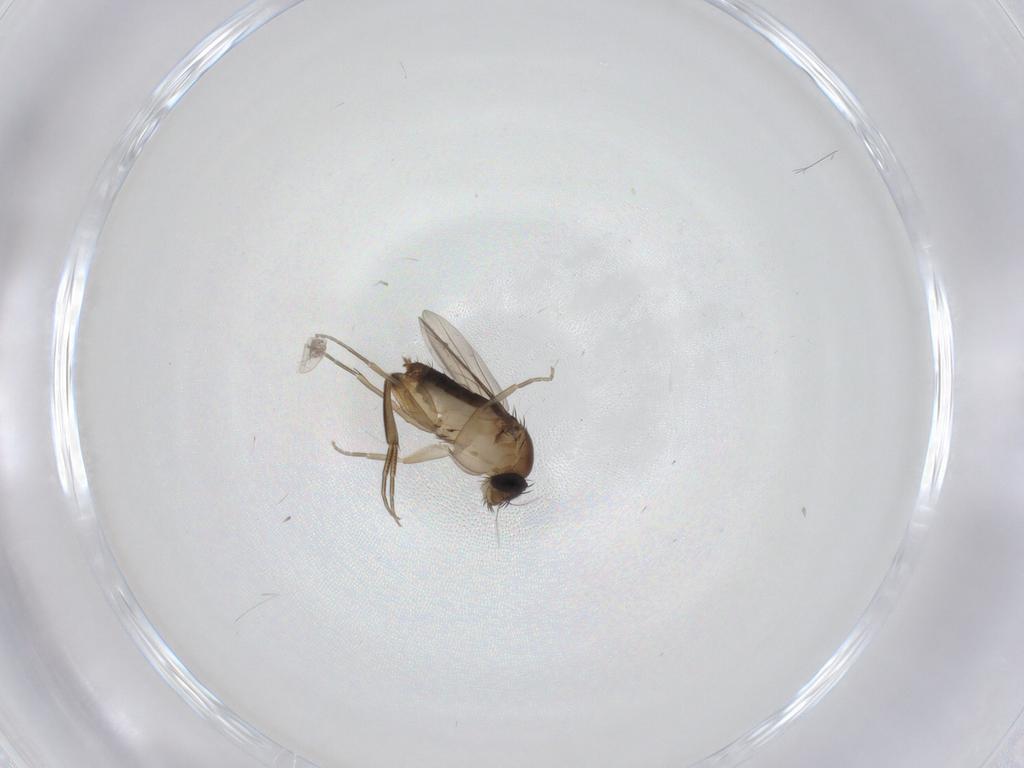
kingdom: Animalia
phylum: Arthropoda
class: Insecta
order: Diptera
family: Phoridae
